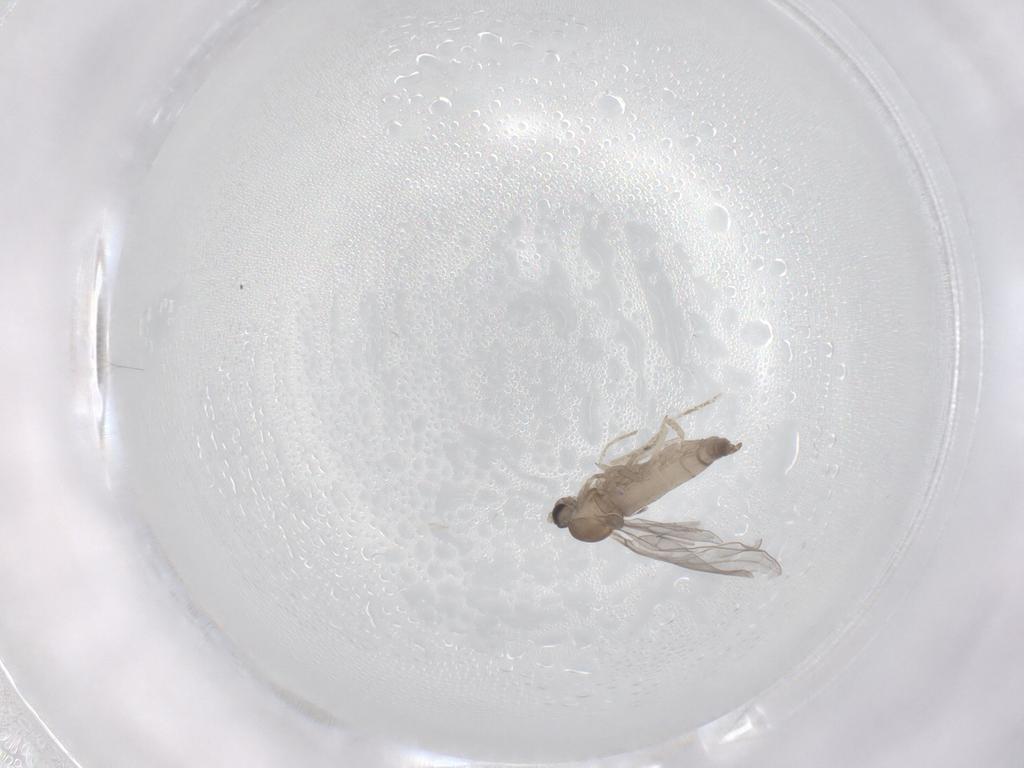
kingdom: Animalia
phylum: Arthropoda
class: Insecta
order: Diptera
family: Cecidomyiidae
